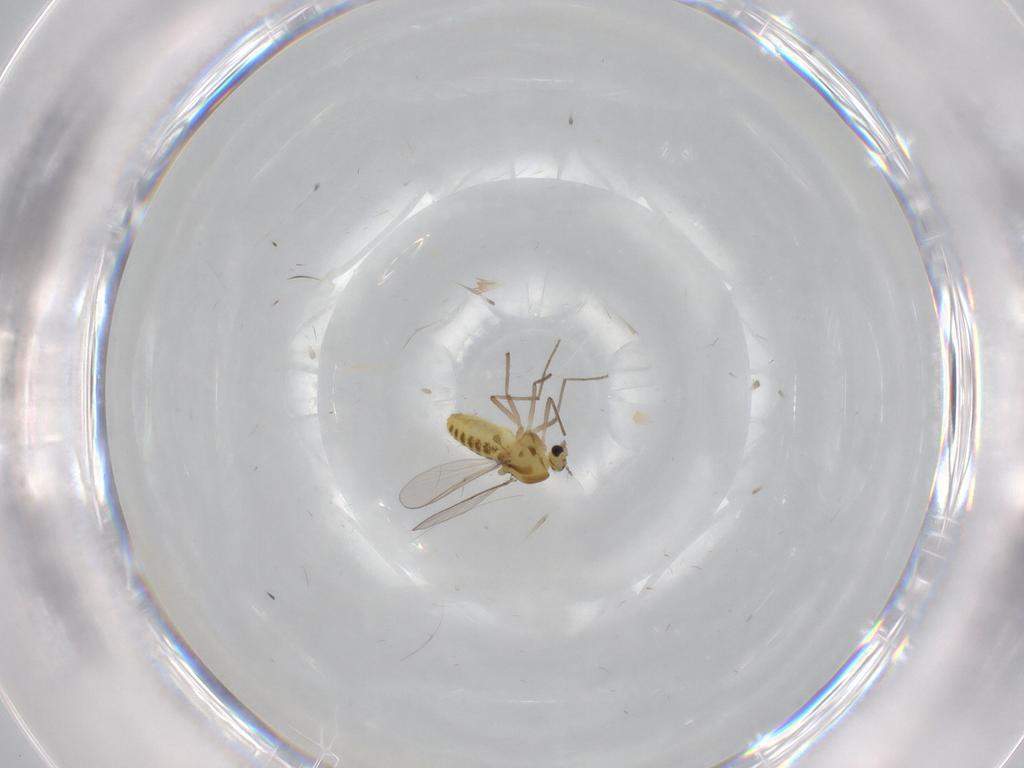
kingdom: Animalia
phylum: Arthropoda
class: Insecta
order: Diptera
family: Chironomidae
